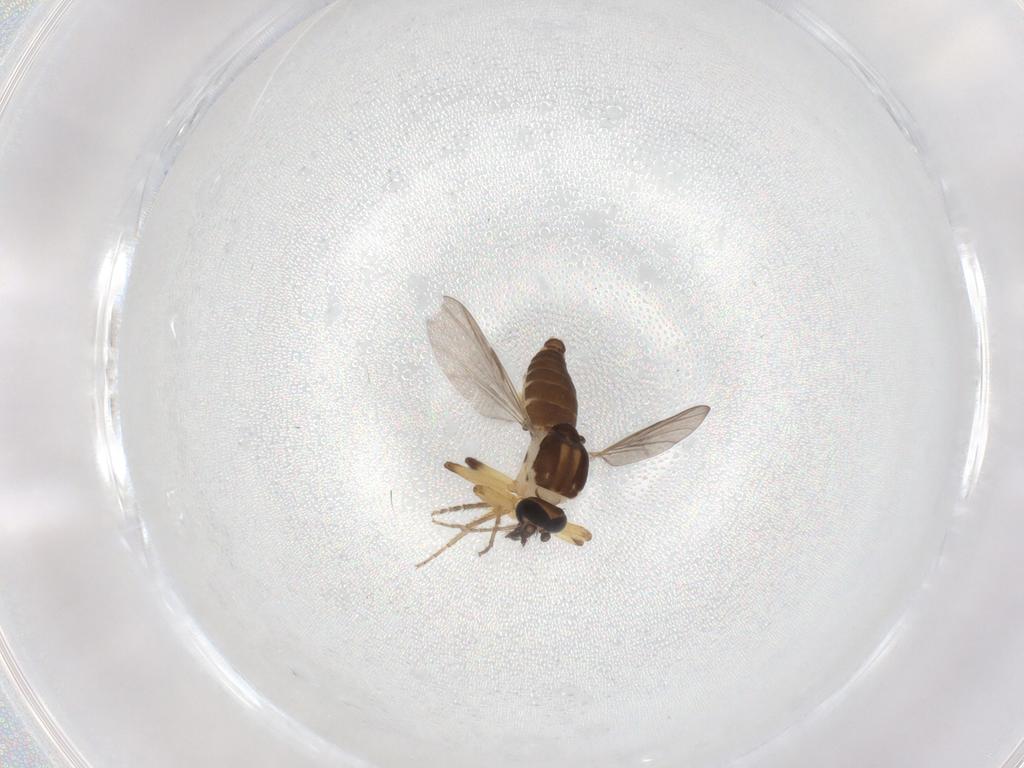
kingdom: Animalia
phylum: Arthropoda
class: Insecta
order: Diptera
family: Ceratopogonidae
